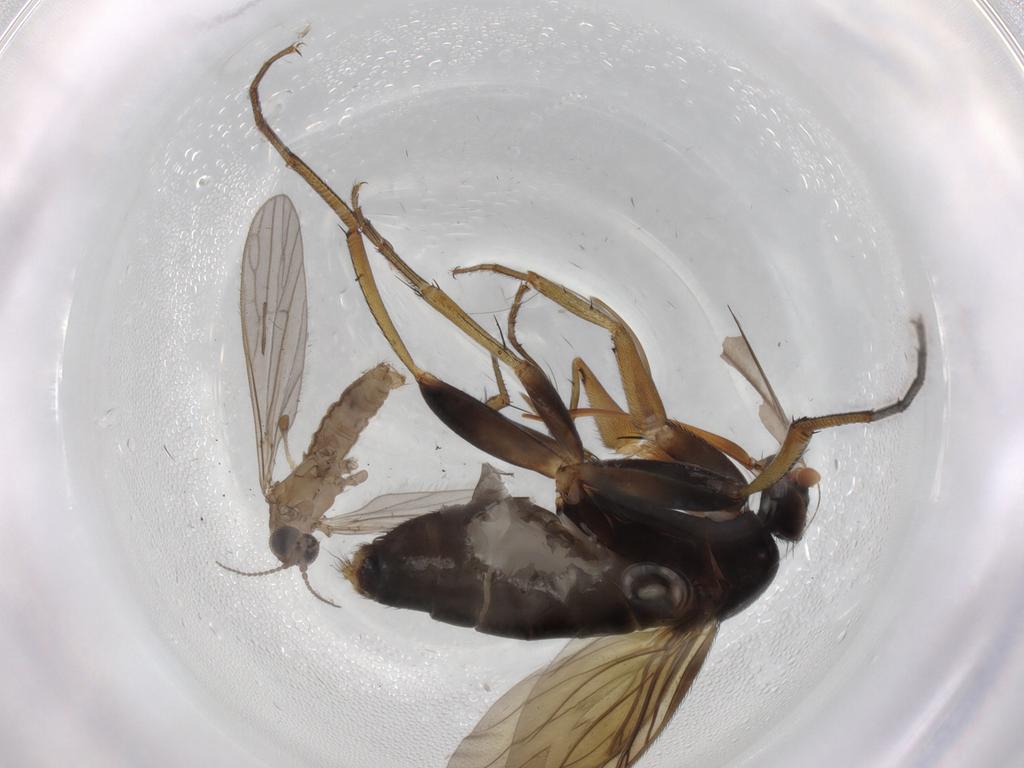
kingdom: Animalia
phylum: Arthropoda
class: Insecta
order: Diptera
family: Phoridae
